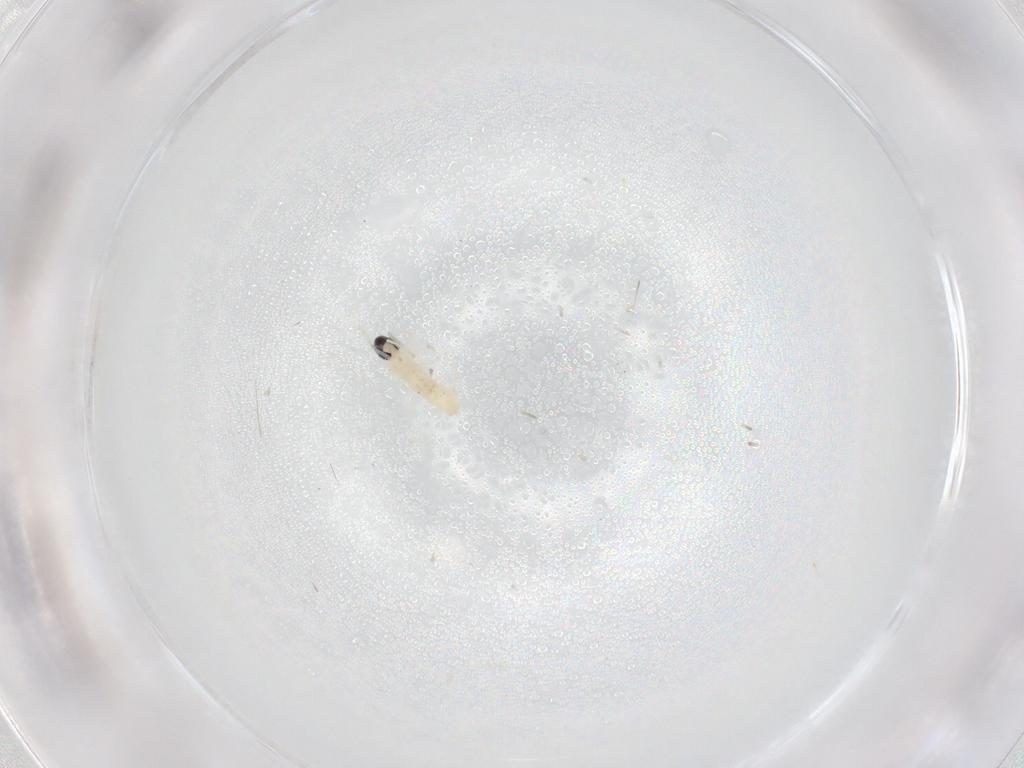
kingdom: Animalia
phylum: Arthropoda
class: Insecta
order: Diptera
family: Cecidomyiidae
